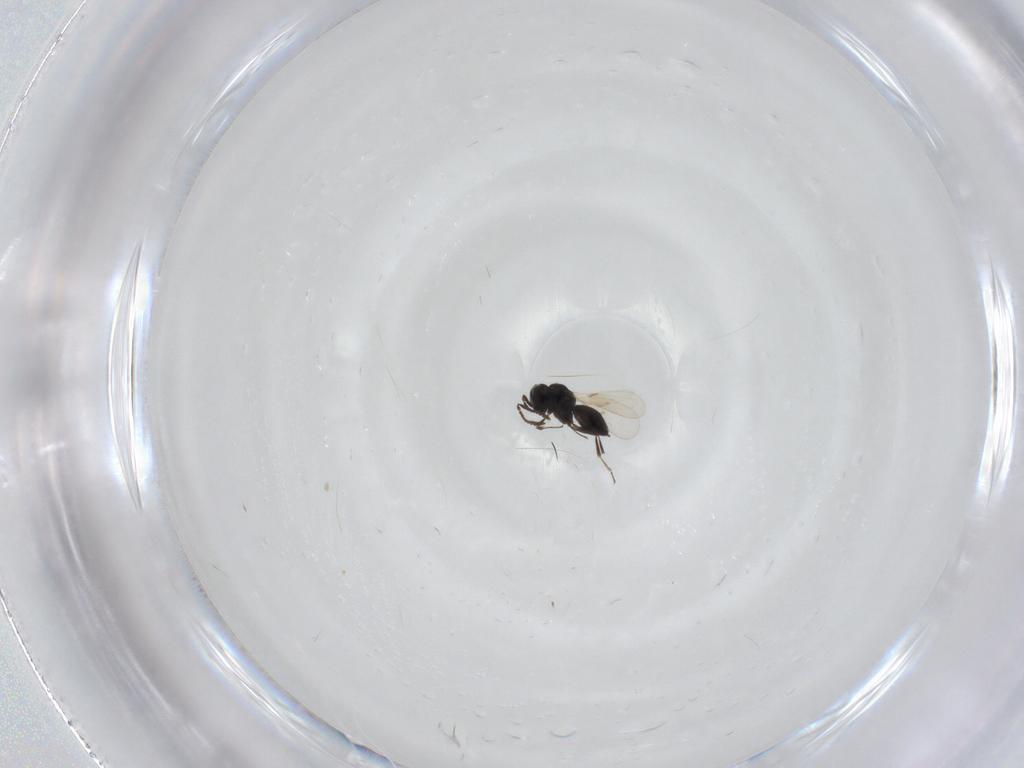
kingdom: Animalia
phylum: Arthropoda
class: Insecta
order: Hymenoptera
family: Scelionidae
